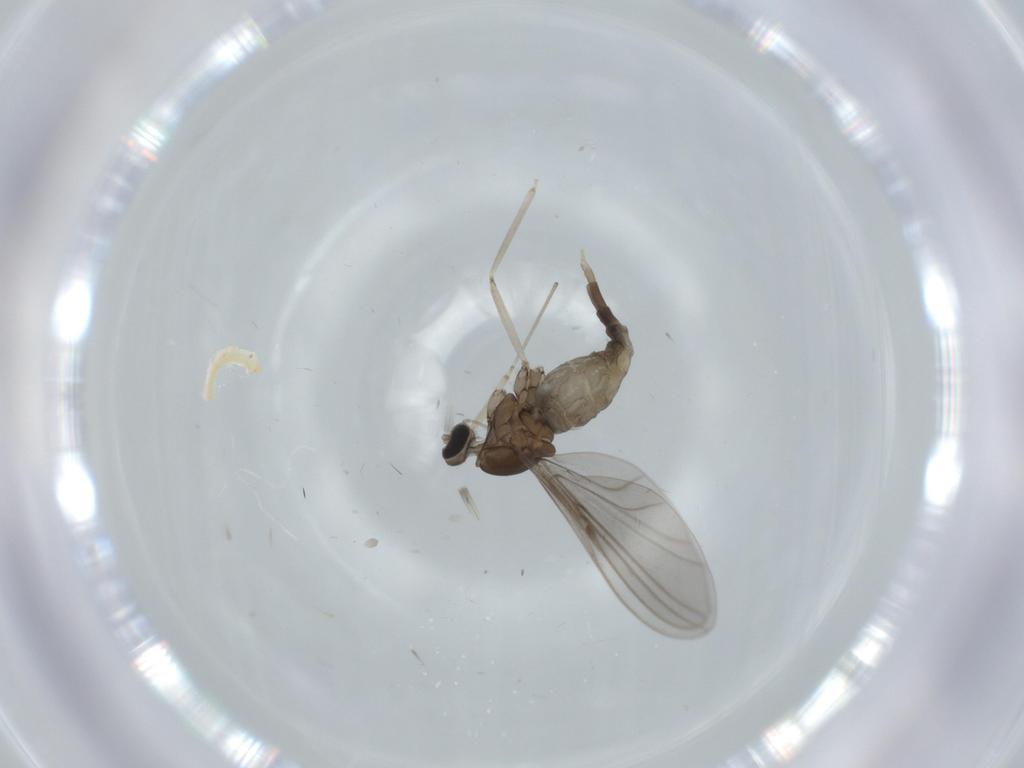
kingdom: Animalia
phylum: Arthropoda
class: Insecta
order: Diptera
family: Cecidomyiidae
